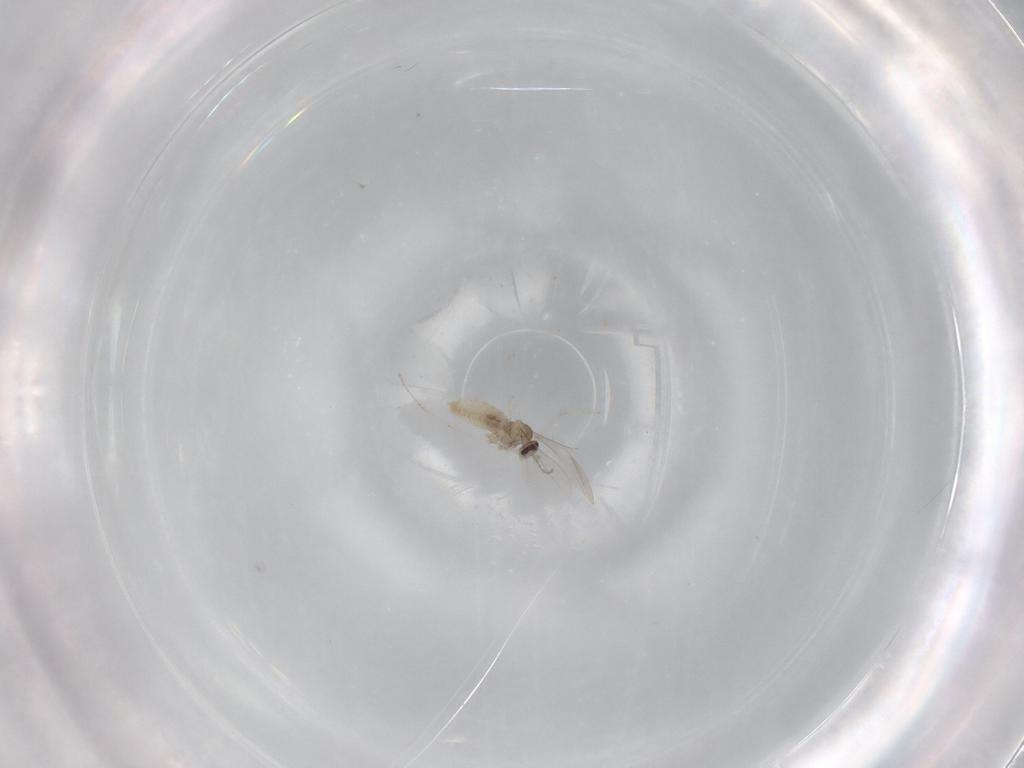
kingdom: Animalia
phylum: Arthropoda
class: Insecta
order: Diptera
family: Cecidomyiidae
